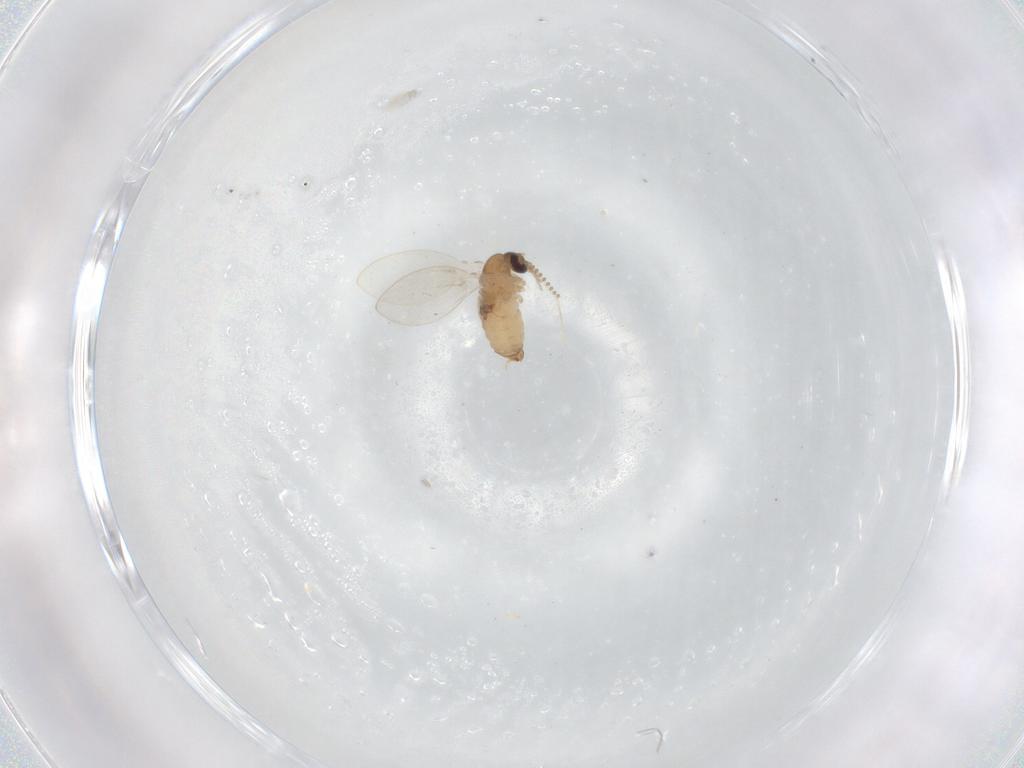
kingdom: Animalia
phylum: Arthropoda
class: Insecta
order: Diptera
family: Psychodidae
